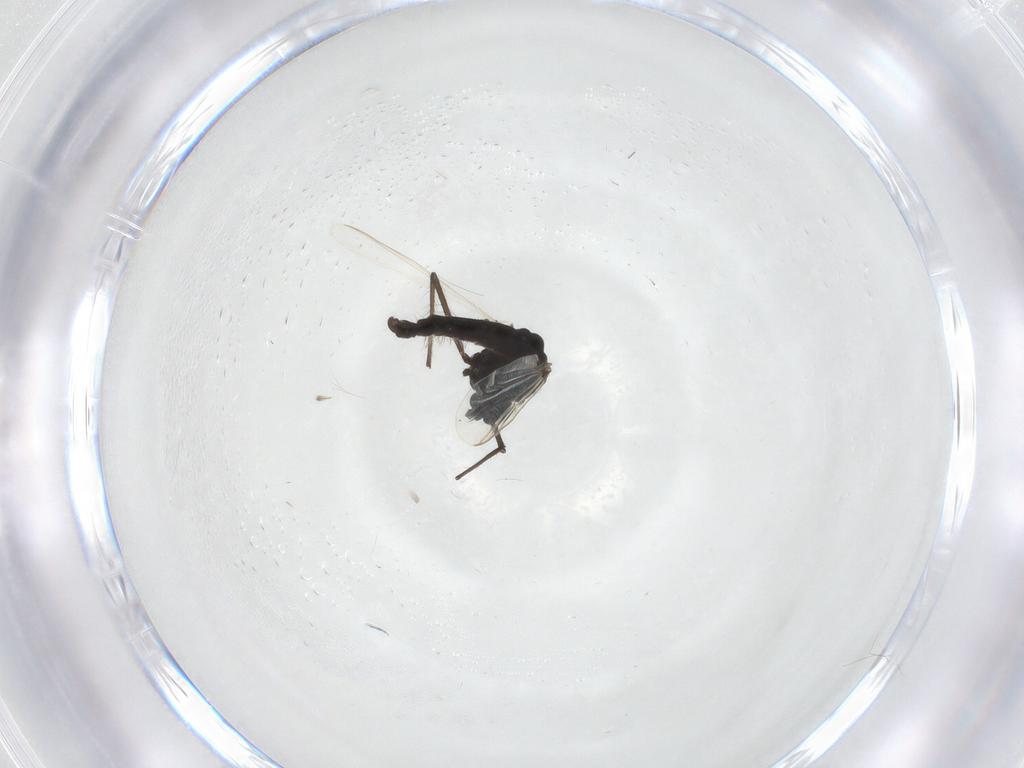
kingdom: Animalia
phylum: Arthropoda
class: Insecta
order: Diptera
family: Chironomidae
